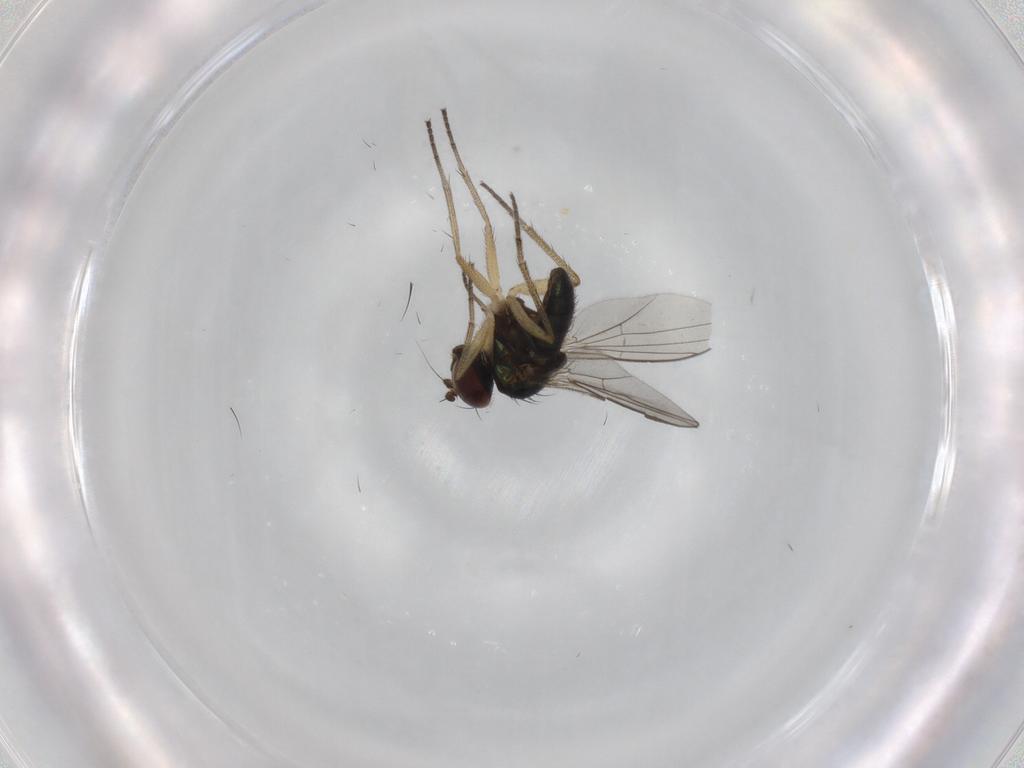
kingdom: Animalia
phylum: Arthropoda
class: Insecta
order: Diptera
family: Dolichopodidae
